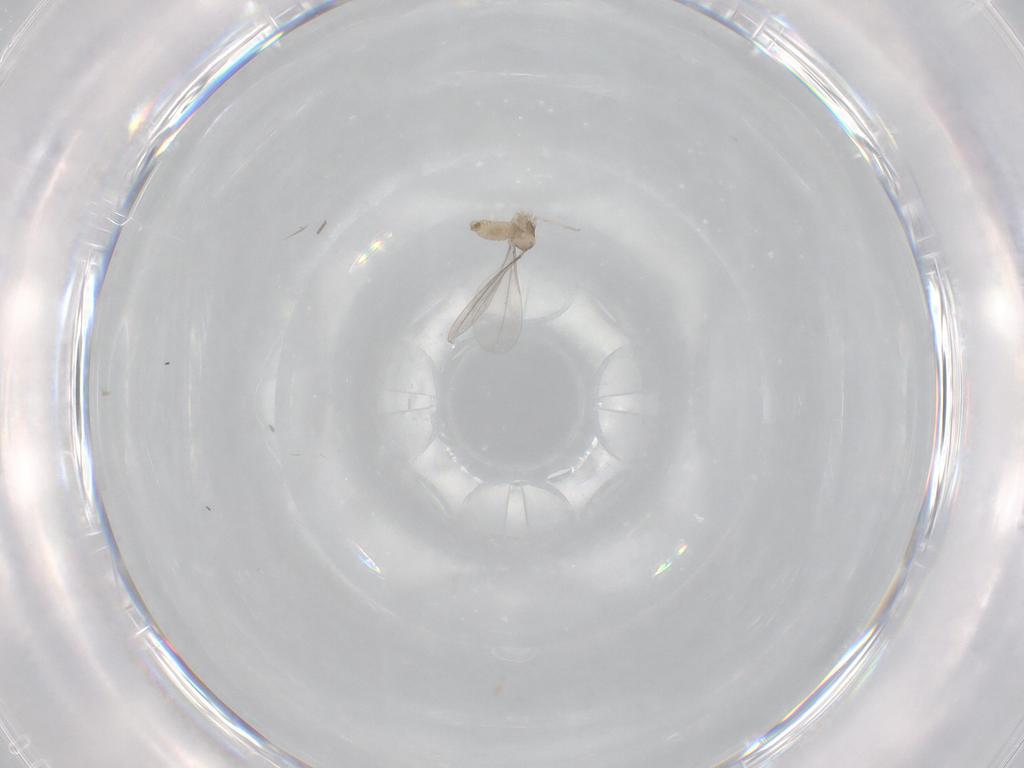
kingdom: Animalia
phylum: Arthropoda
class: Insecta
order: Diptera
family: Cecidomyiidae
